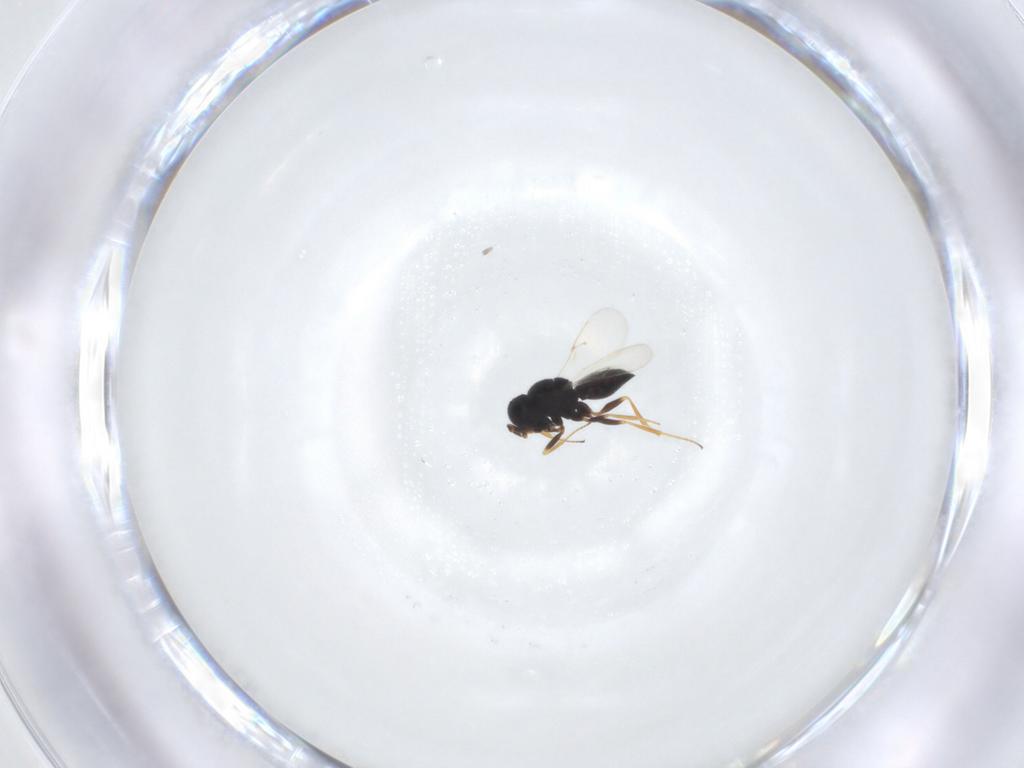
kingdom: Animalia
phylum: Arthropoda
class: Insecta
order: Hymenoptera
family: Scelionidae
